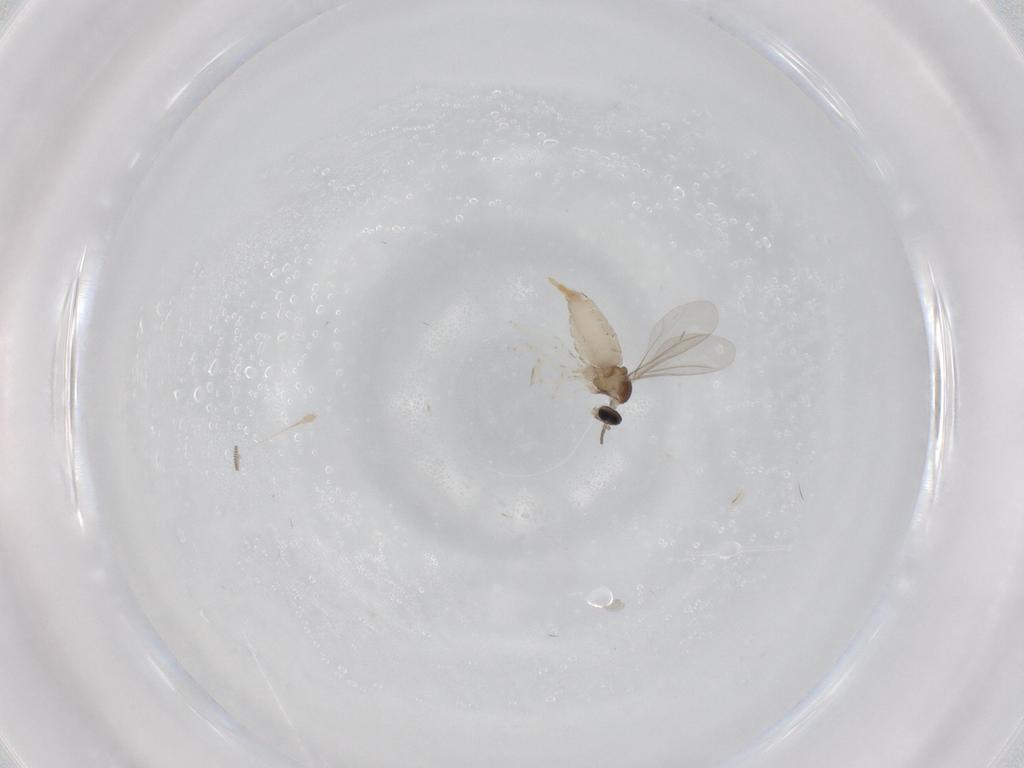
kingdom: Animalia
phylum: Arthropoda
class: Insecta
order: Diptera
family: Cecidomyiidae
